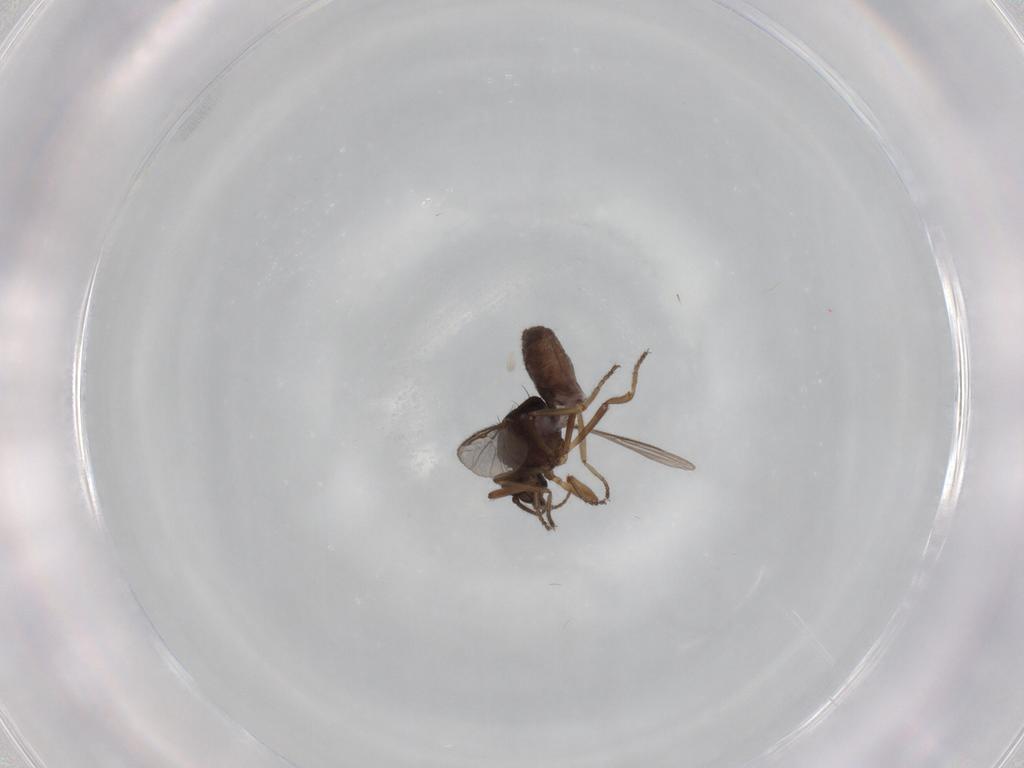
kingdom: Animalia
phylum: Arthropoda
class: Insecta
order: Diptera
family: Ceratopogonidae
